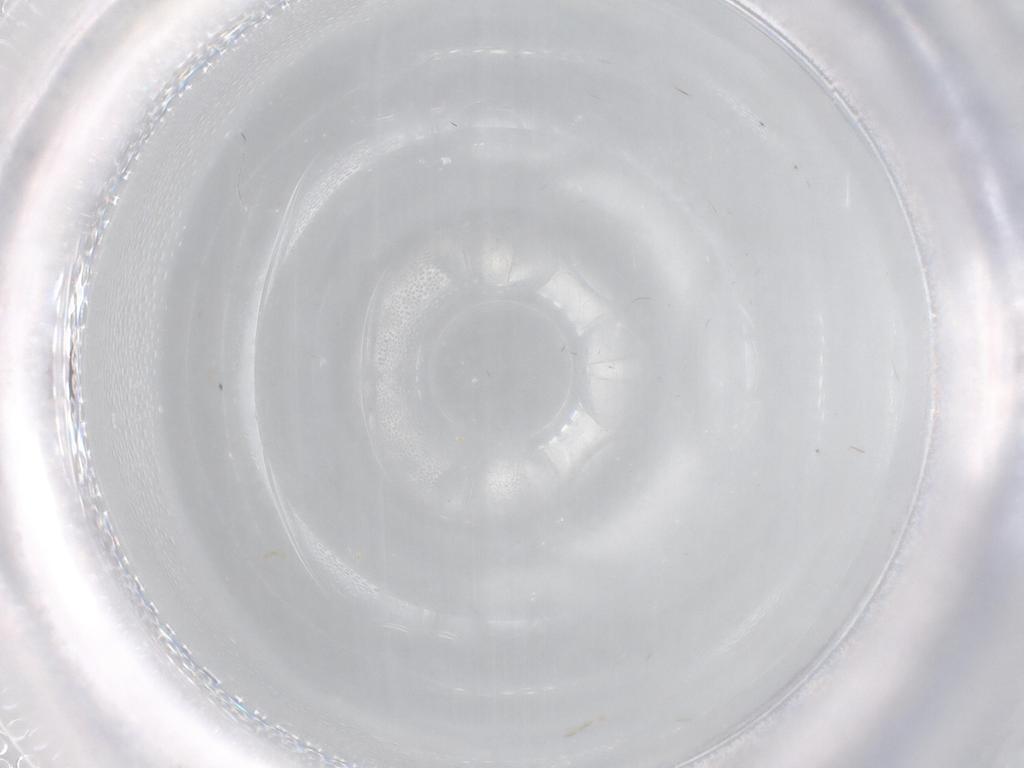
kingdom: Animalia
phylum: Arthropoda
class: Insecta
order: Diptera
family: Cecidomyiidae
